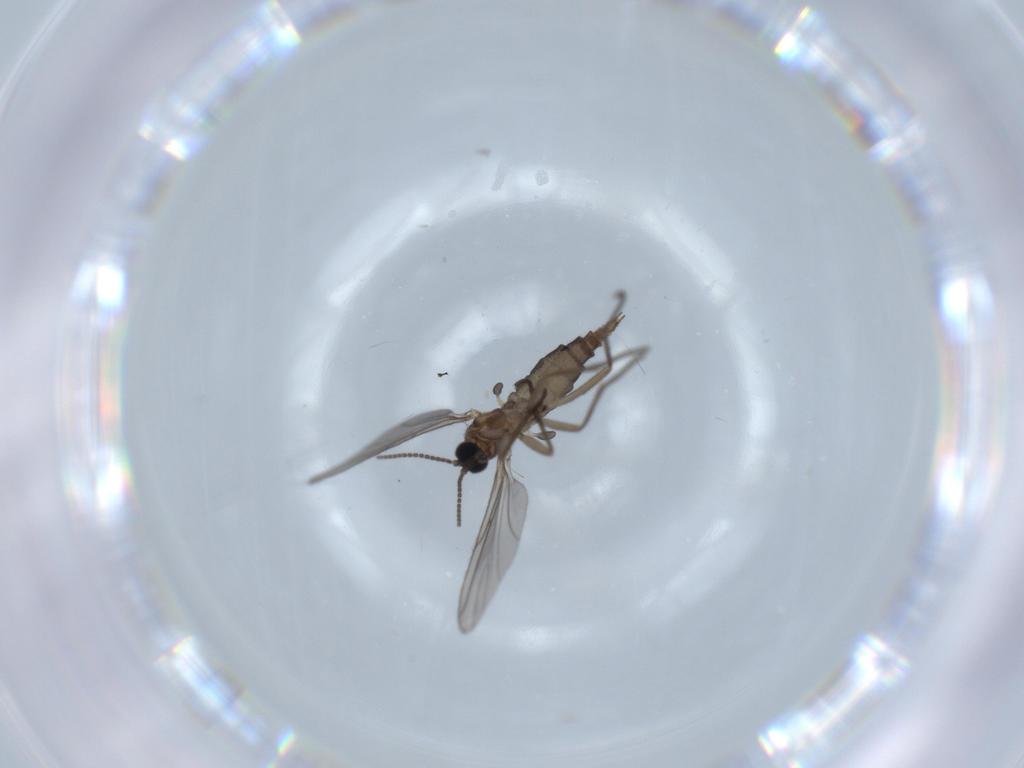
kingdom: Animalia
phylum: Arthropoda
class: Insecta
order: Diptera
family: Sciaridae
